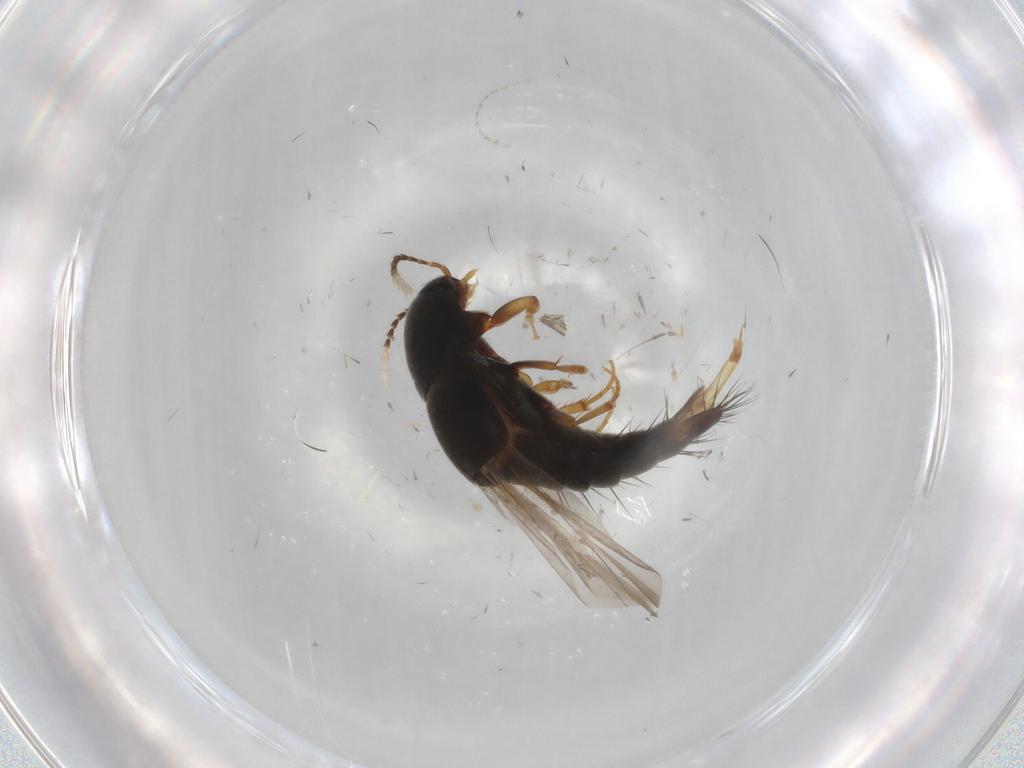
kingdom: Animalia
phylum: Arthropoda
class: Insecta
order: Coleoptera
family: Staphylinidae
